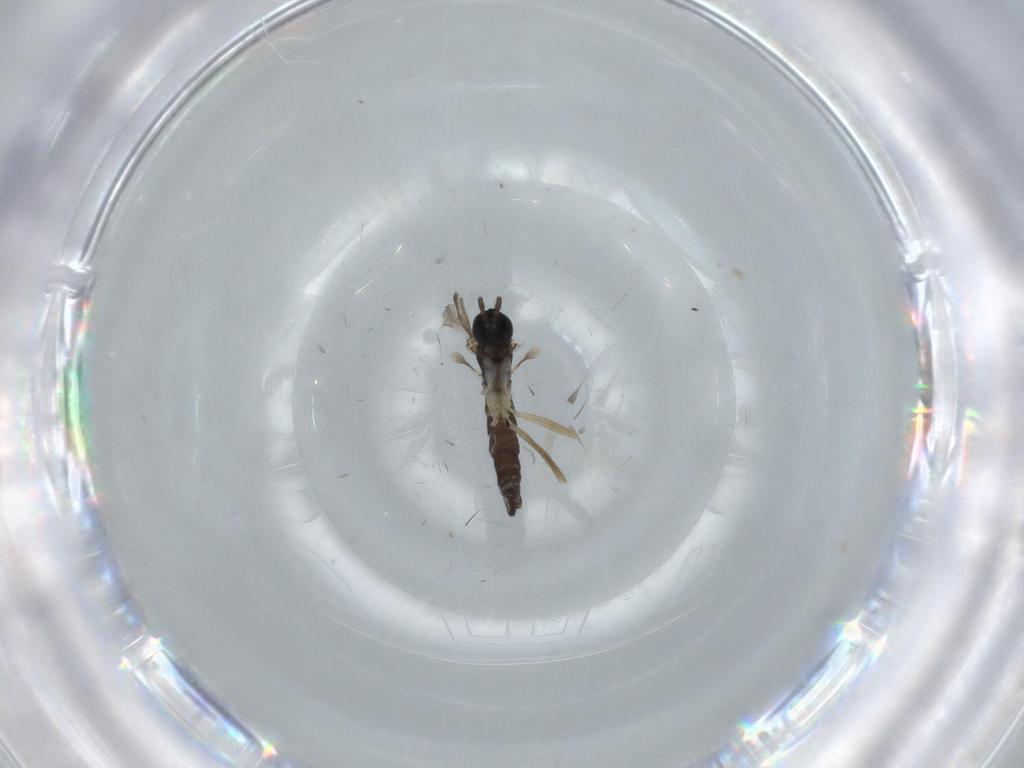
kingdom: Animalia
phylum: Arthropoda
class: Insecta
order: Diptera
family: Sciaridae
